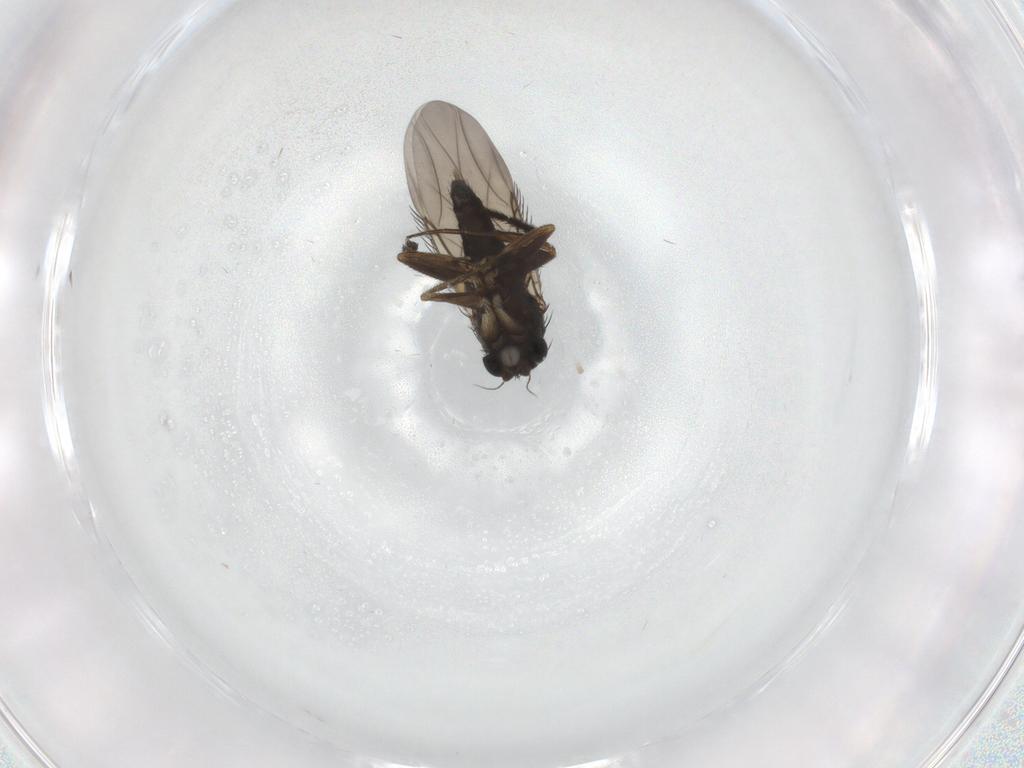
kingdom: Animalia
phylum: Arthropoda
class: Insecta
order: Diptera
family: Phoridae
